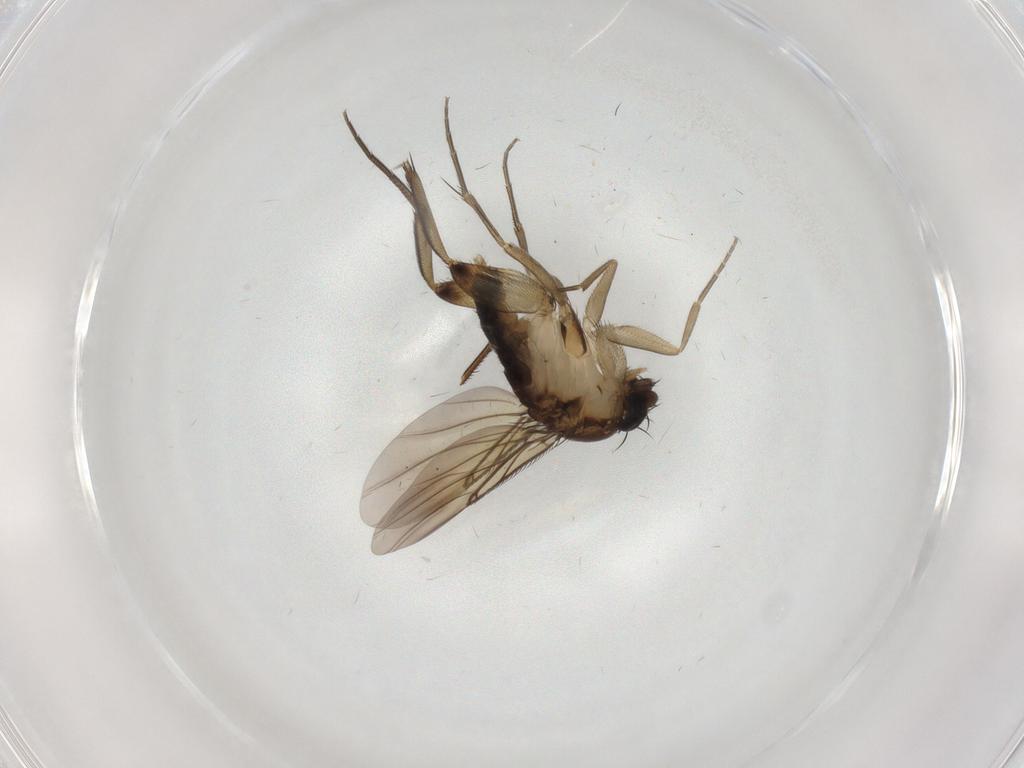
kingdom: Animalia
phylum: Arthropoda
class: Insecta
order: Diptera
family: Phoridae
